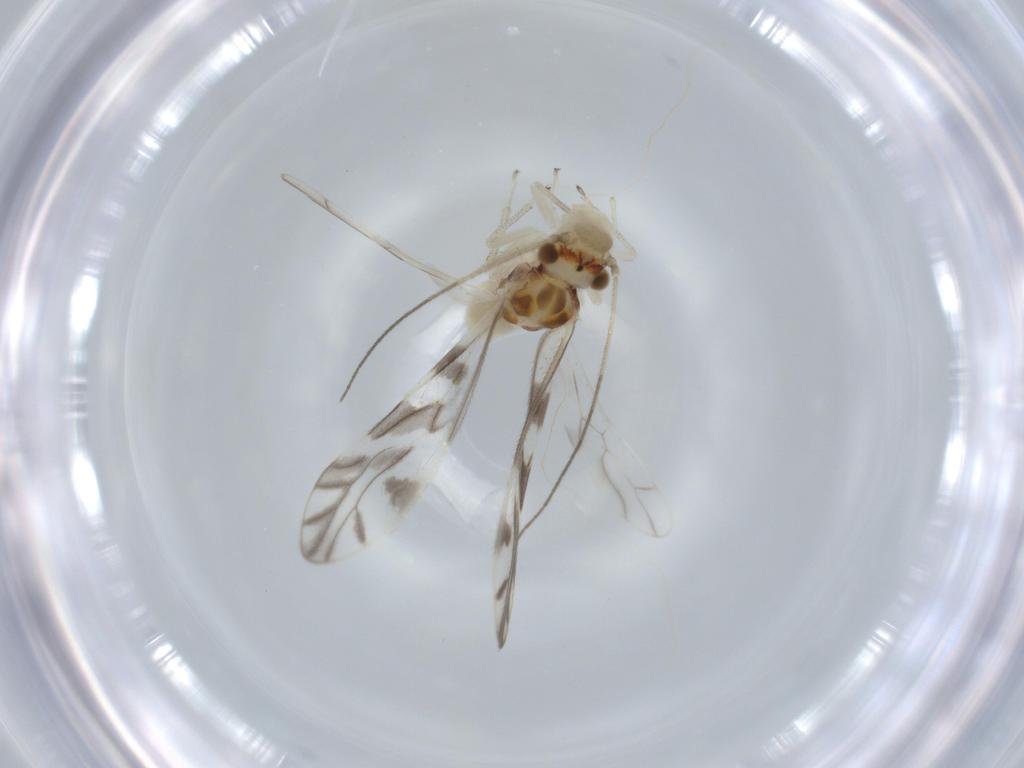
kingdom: Animalia
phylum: Arthropoda
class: Insecta
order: Psocodea
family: Caeciliusidae
